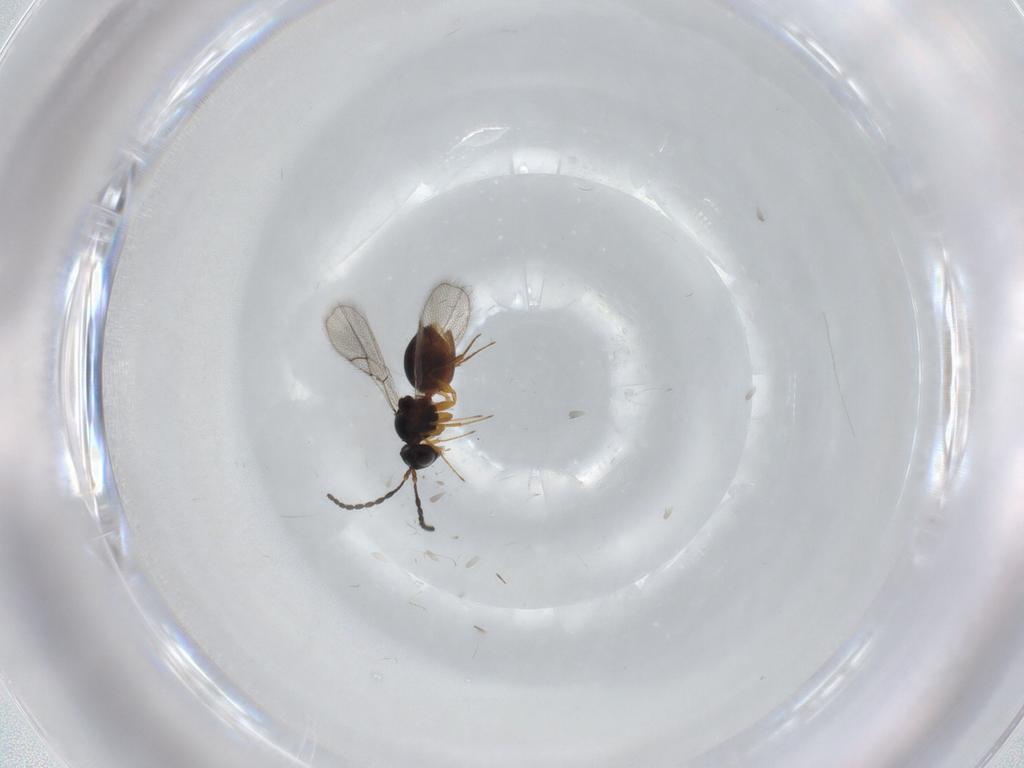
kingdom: Animalia
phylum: Arthropoda
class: Insecta
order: Hymenoptera
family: Figitidae
